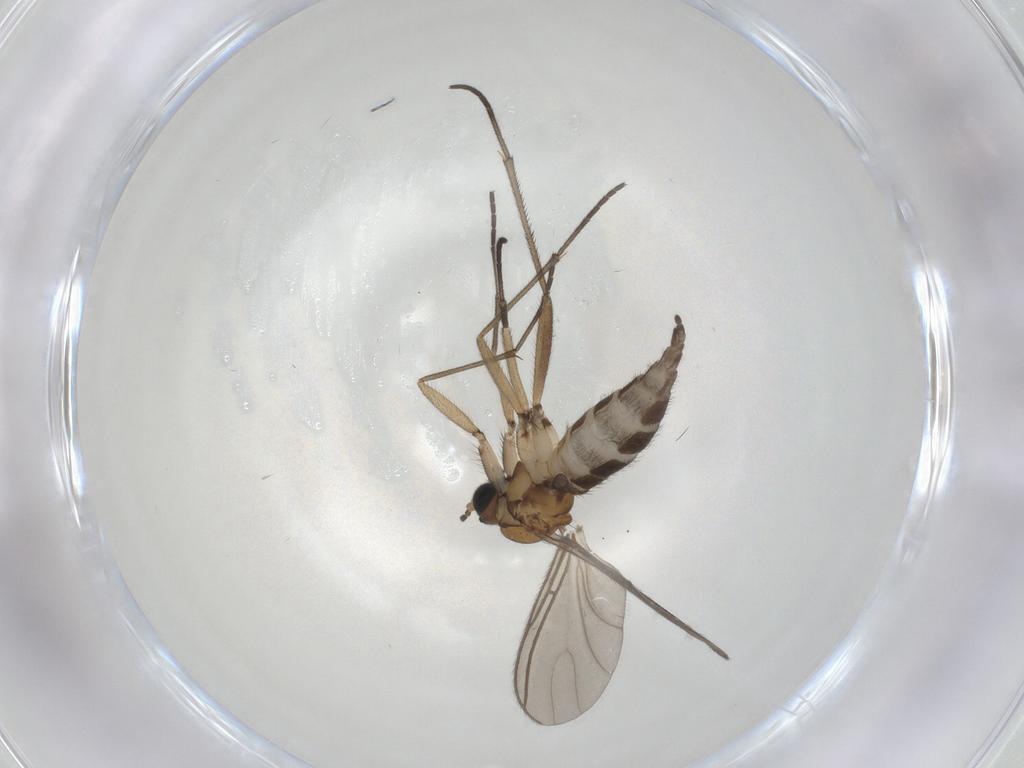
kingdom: Animalia
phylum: Arthropoda
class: Insecta
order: Diptera
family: Sciaridae
